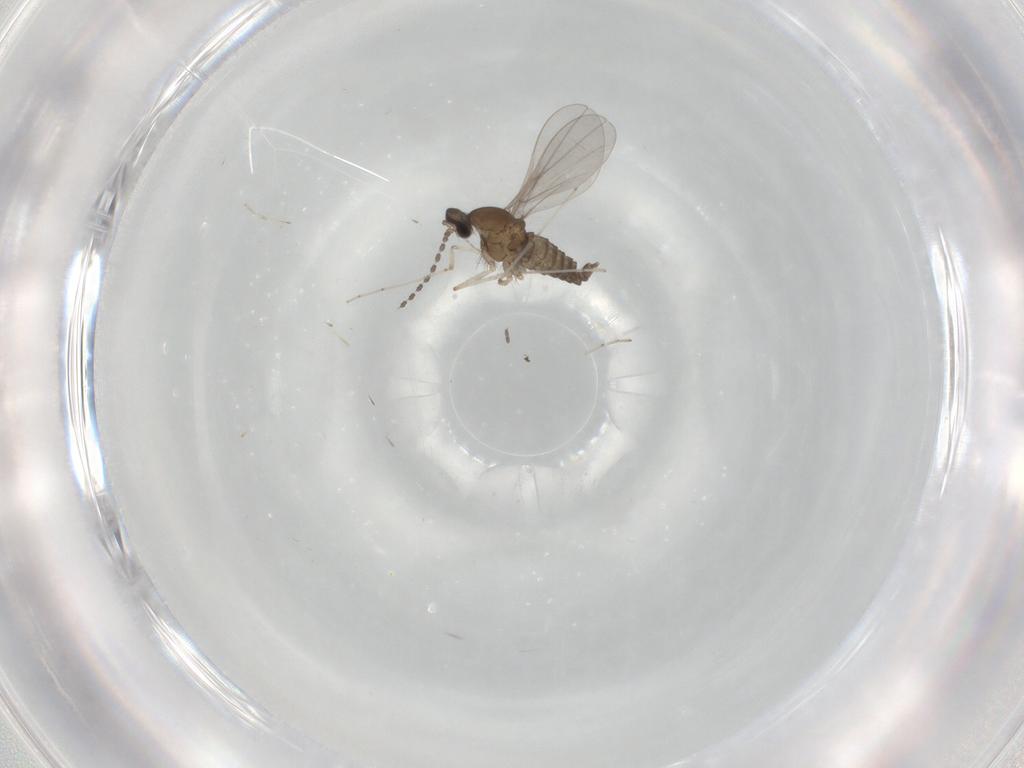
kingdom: Animalia
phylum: Arthropoda
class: Insecta
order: Diptera
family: Cecidomyiidae
